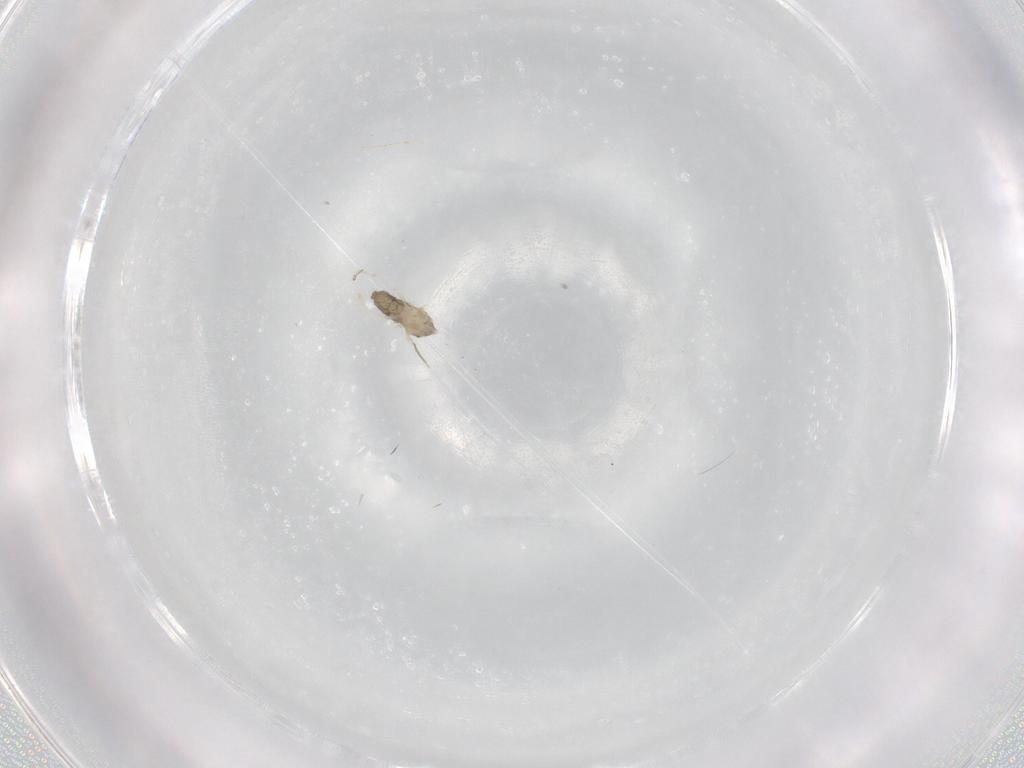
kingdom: Animalia
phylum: Arthropoda
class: Insecta
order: Diptera
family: Cecidomyiidae
